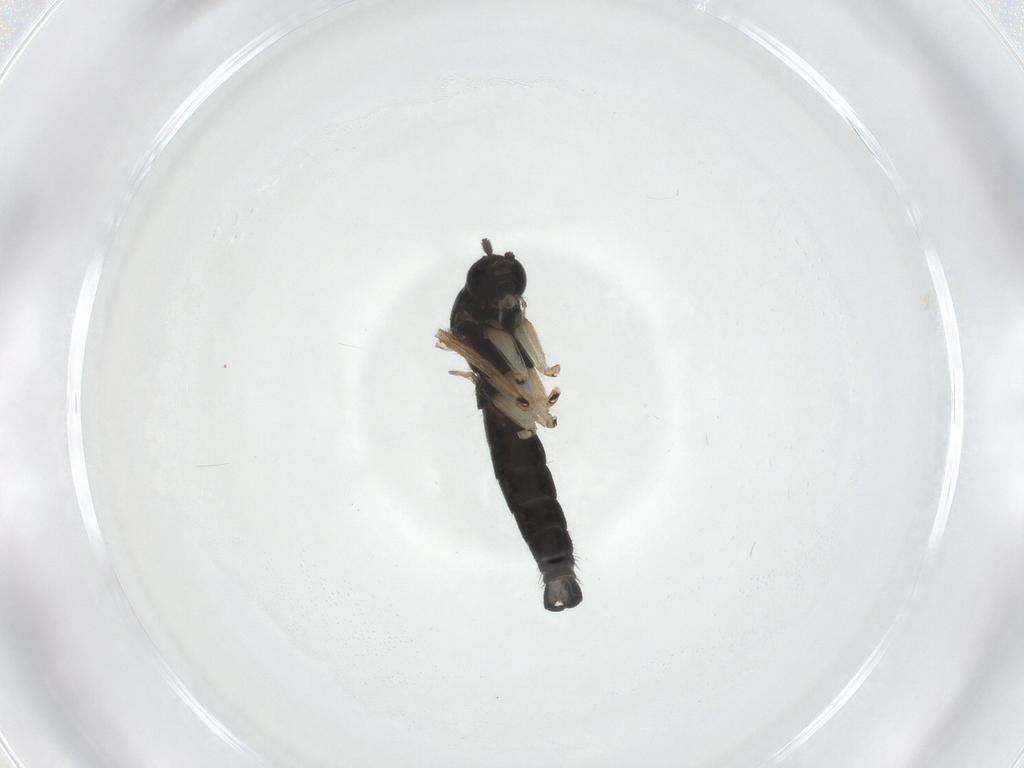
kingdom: Animalia
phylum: Arthropoda
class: Insecta
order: Diptera
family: Sciaridae
